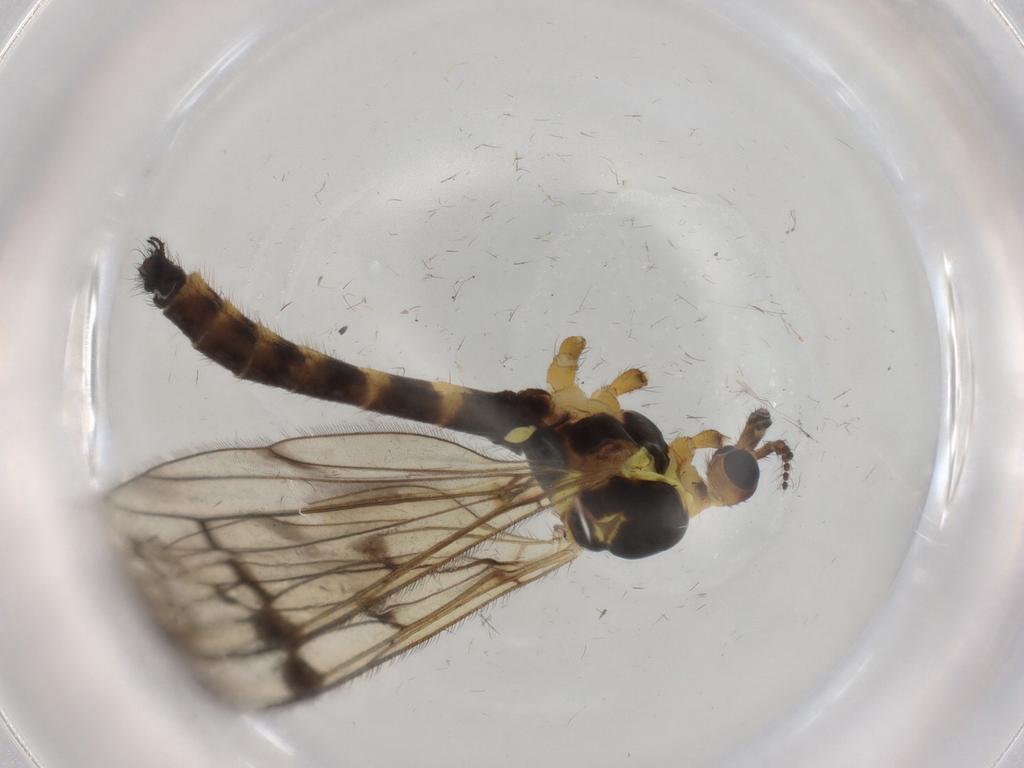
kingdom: Animalia
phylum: Arthropoda
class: Insecta
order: Diptera
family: Limoniidae
